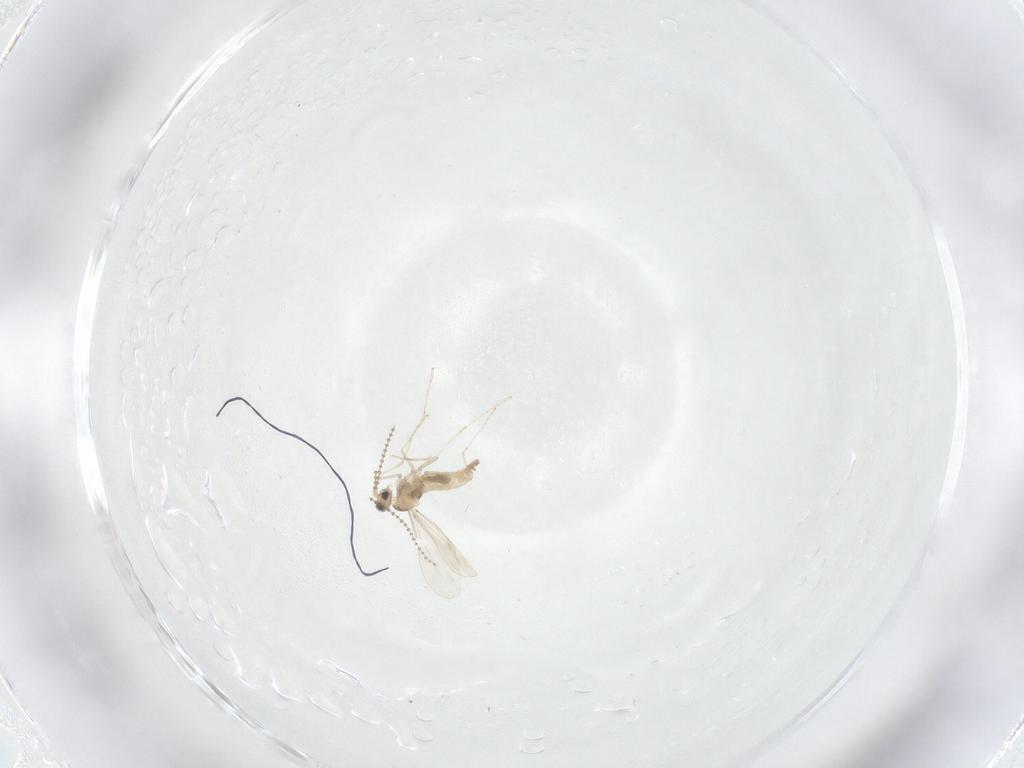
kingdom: Animalia
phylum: Arthropoda
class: Insecta
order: Diptera
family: Cecidomyiidae
